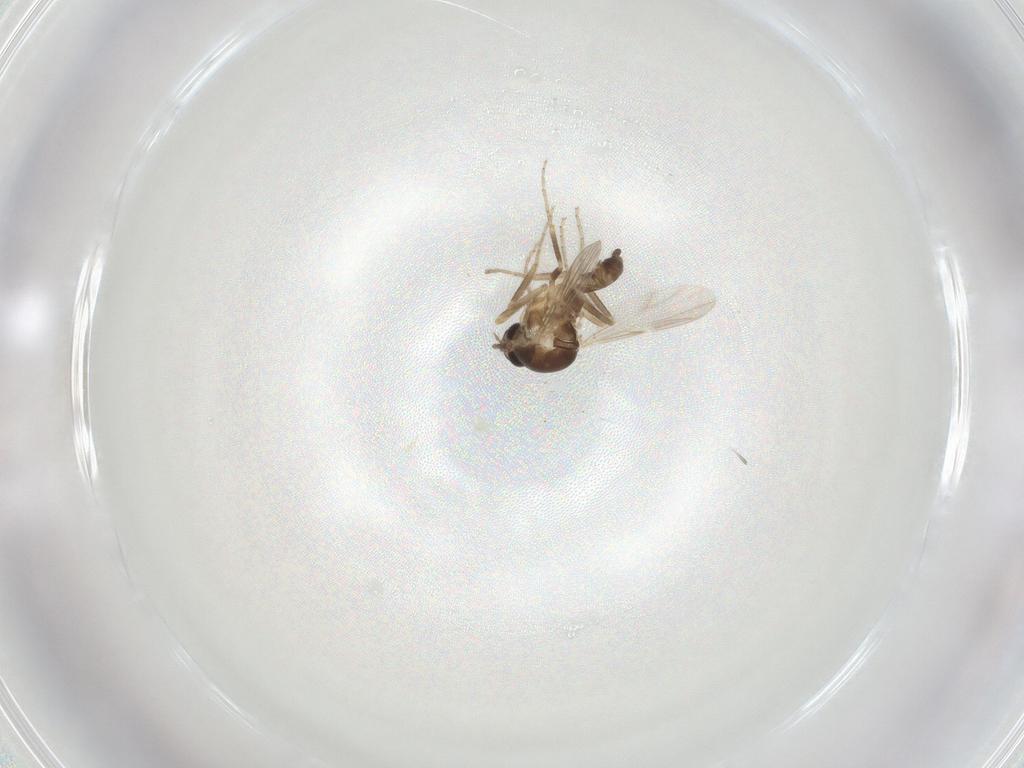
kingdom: Animalia
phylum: Arthropoda
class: Insecta
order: Diptera
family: Ceratopogonidae
